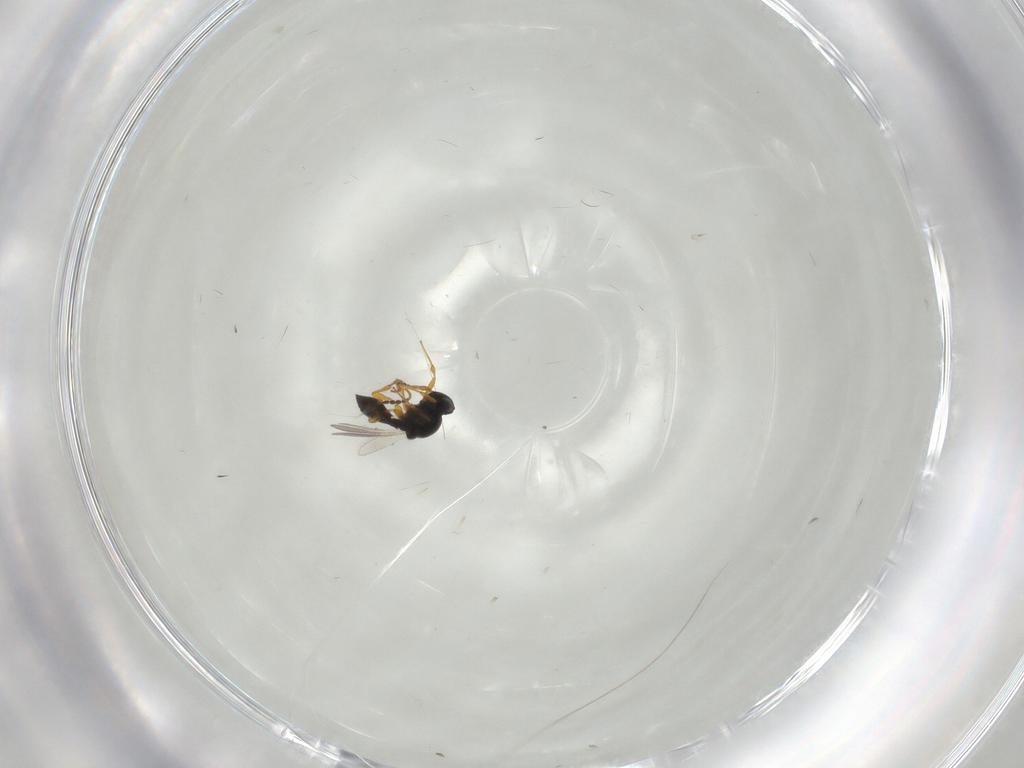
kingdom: Animalia
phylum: Arthropoda
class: Insecta
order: Hymenoptera
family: Platygastridae
